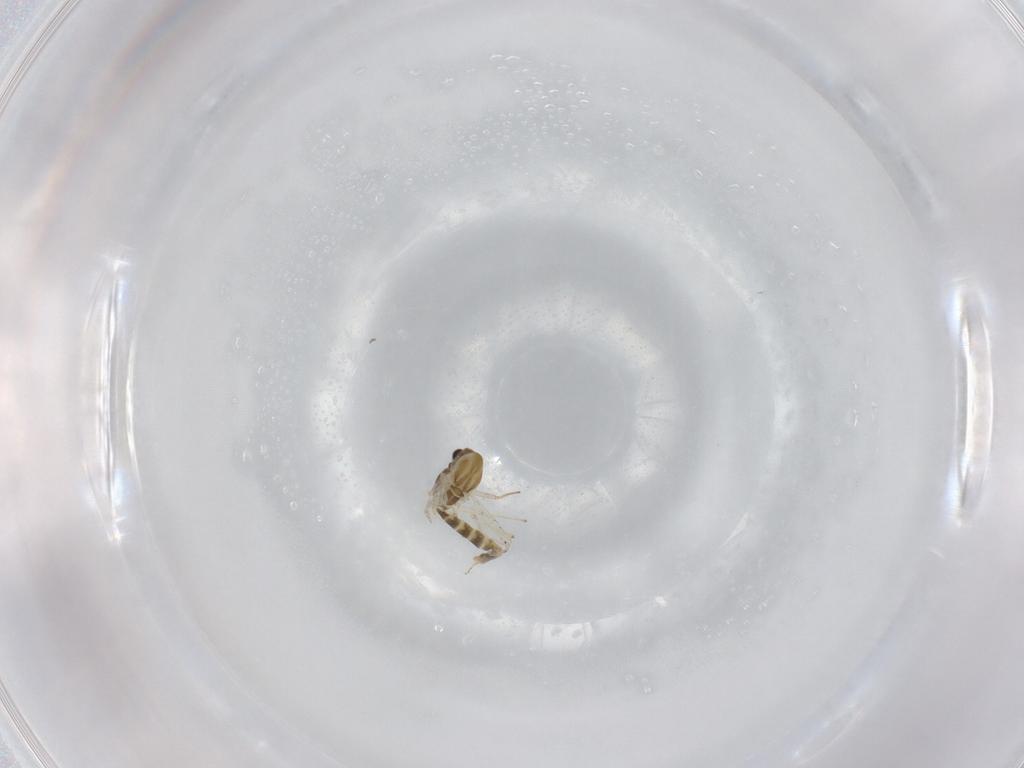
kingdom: Animalia
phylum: Arthropoda
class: Insecta
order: Diptera
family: Chironomidae
